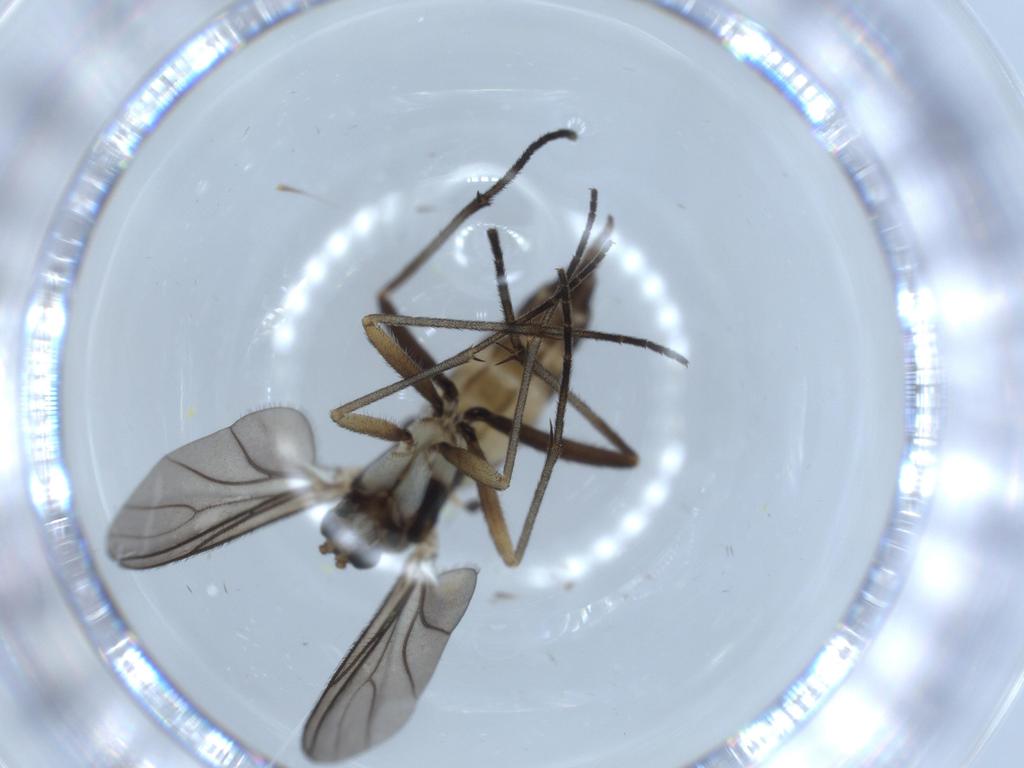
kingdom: Animalia
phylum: Arthropoda
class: Insecta
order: Diptera
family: Sciaridae
